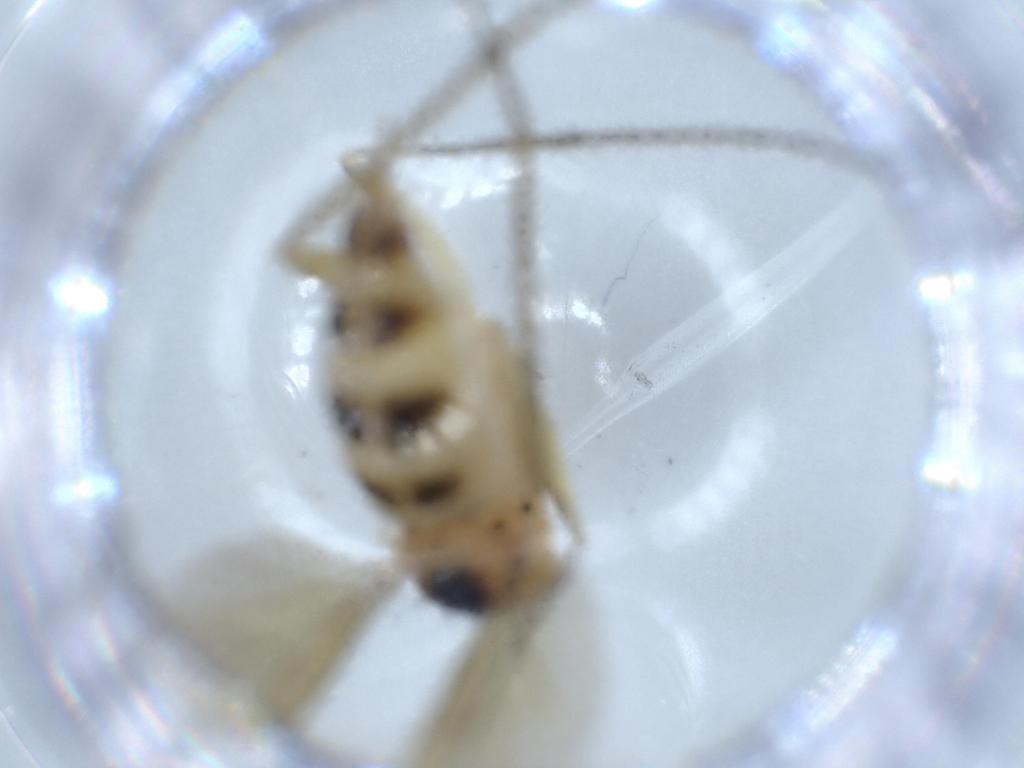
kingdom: Animalia
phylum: Arthropoda
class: Insecta
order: Diptera
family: Dolichopodidae
